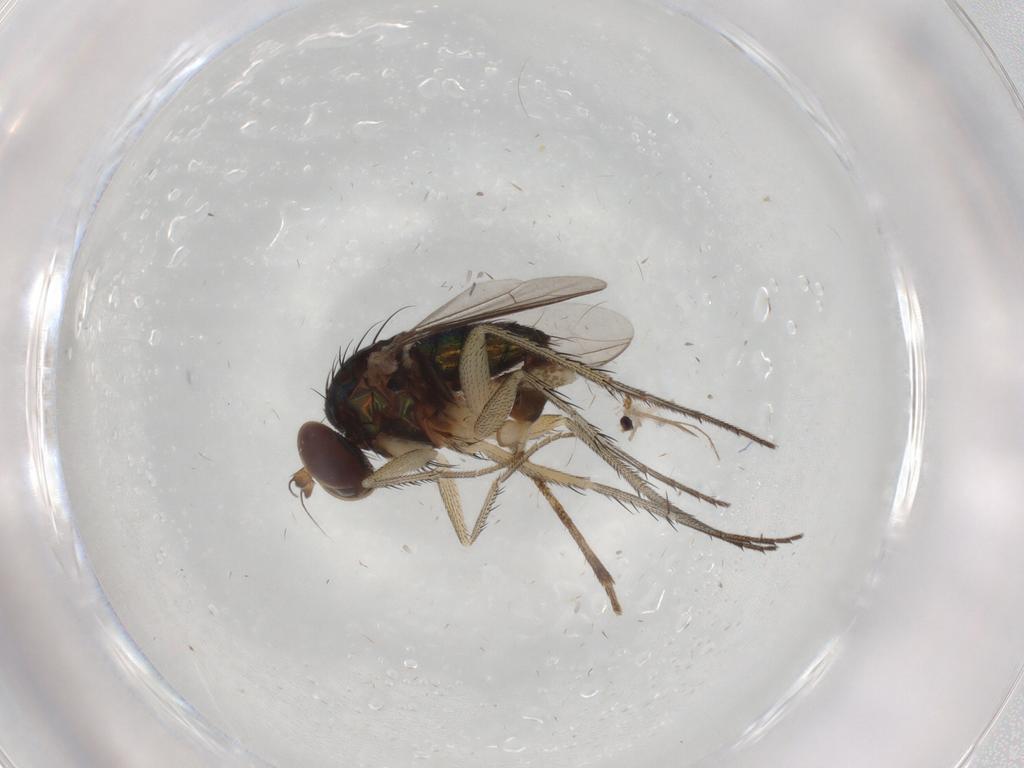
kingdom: Animalia
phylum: Arthropoda
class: Insecta
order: Diptera
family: Dolichopodidae
